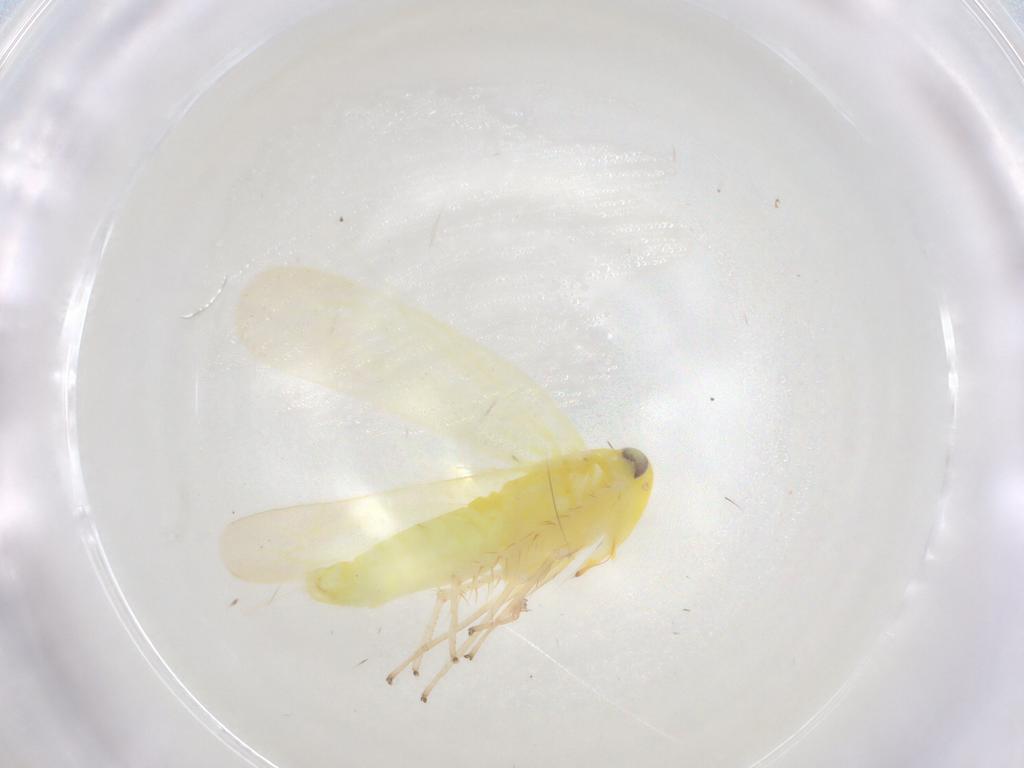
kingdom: Animalia
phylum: Arthropoda
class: Insecta
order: Hemiptera
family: Cicadellidae
